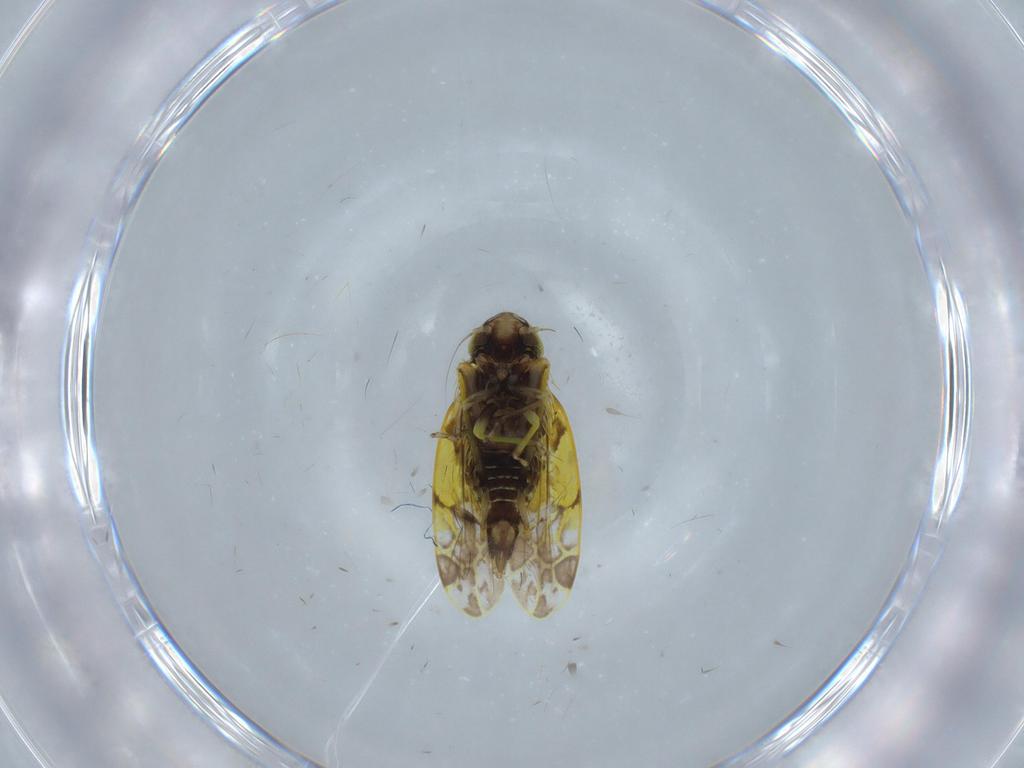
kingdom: Animalia
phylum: Arthropoda
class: Insecta
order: Hemiptera
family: Cicadellidae
